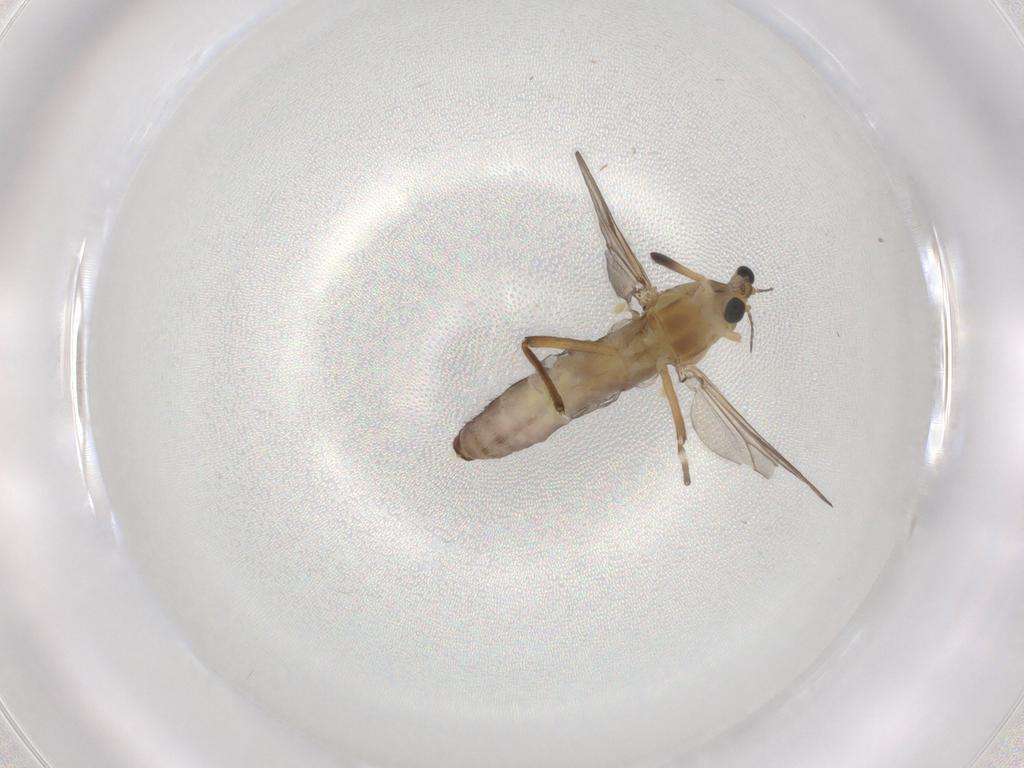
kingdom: Animalia
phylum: Arthropoda
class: Insecta
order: Diptera
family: Chironomidae
